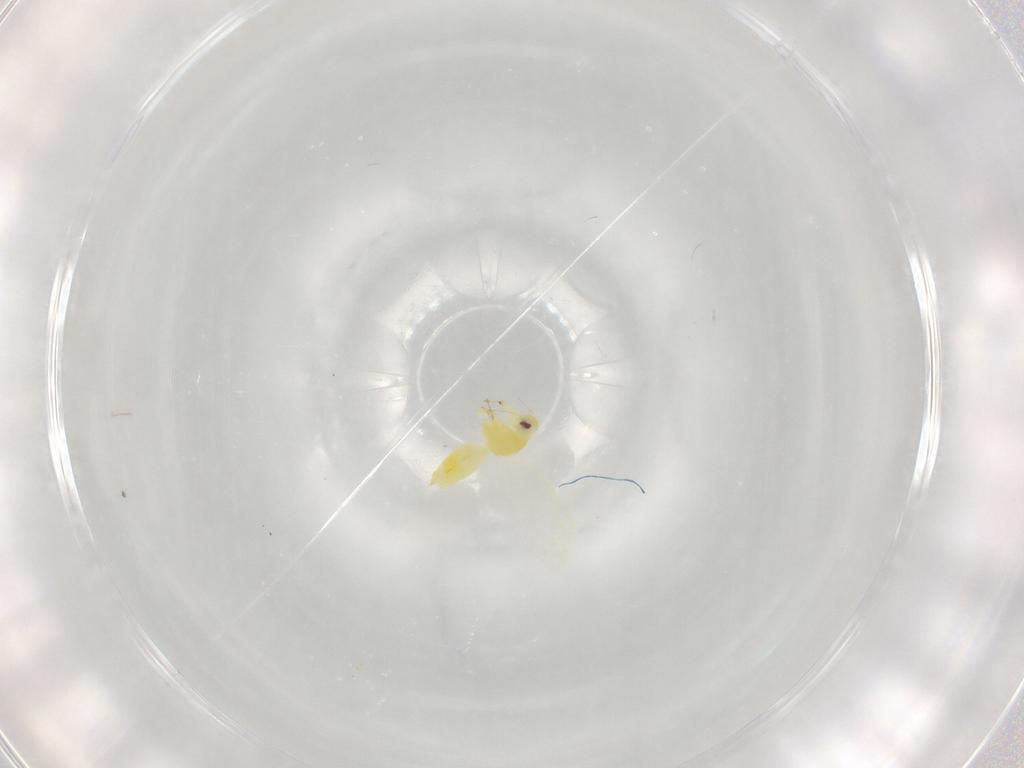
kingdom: Animalia
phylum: Arthropoda
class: Insecta
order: Hemiptera
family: Aleyrodidae
